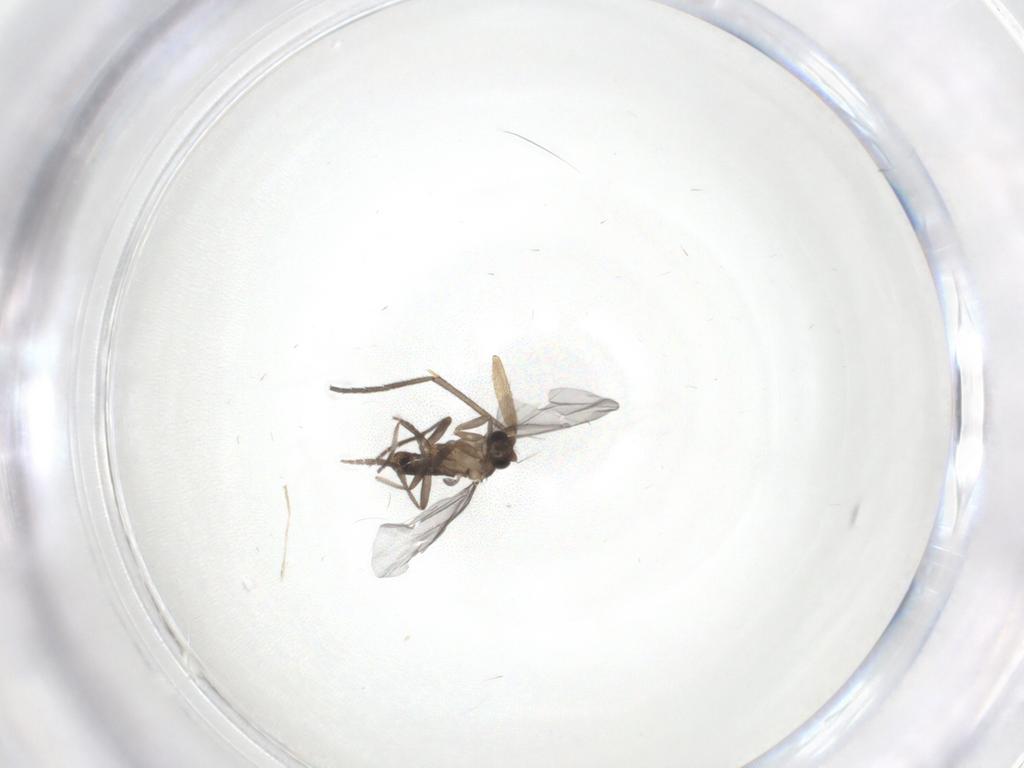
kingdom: Animalia
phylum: Arthropoda
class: Insecta
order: Diptera
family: Phoridae
